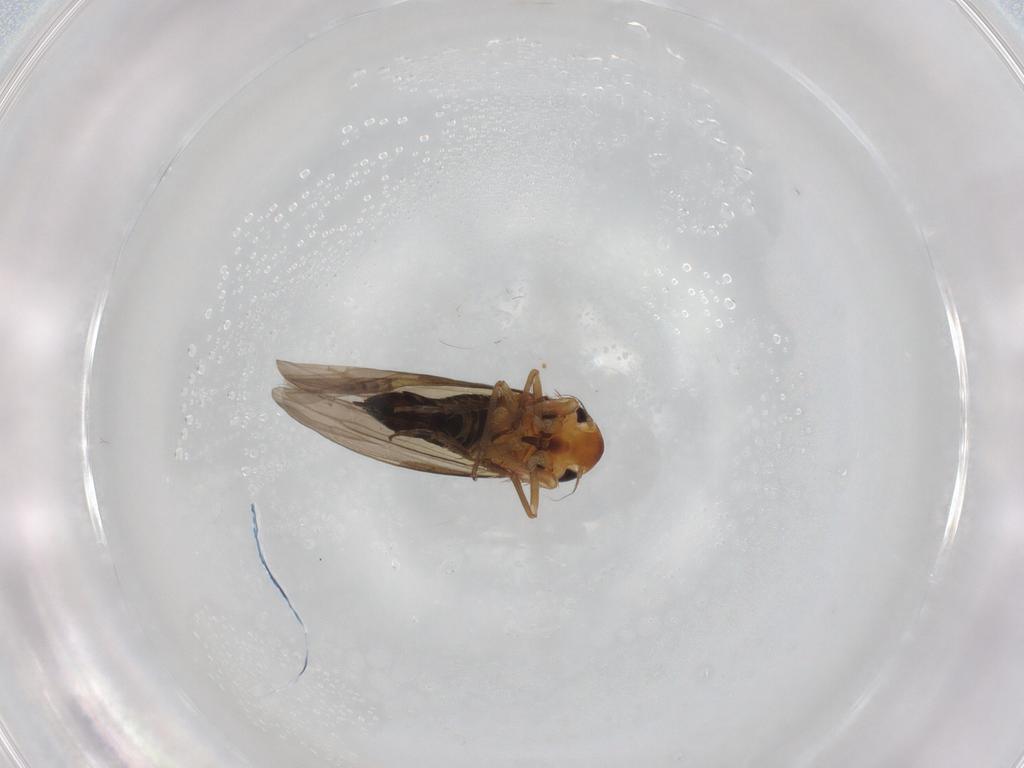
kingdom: Animalia
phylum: Arthropoda
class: Insecta
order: Hemiptera
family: Cicadellidae
